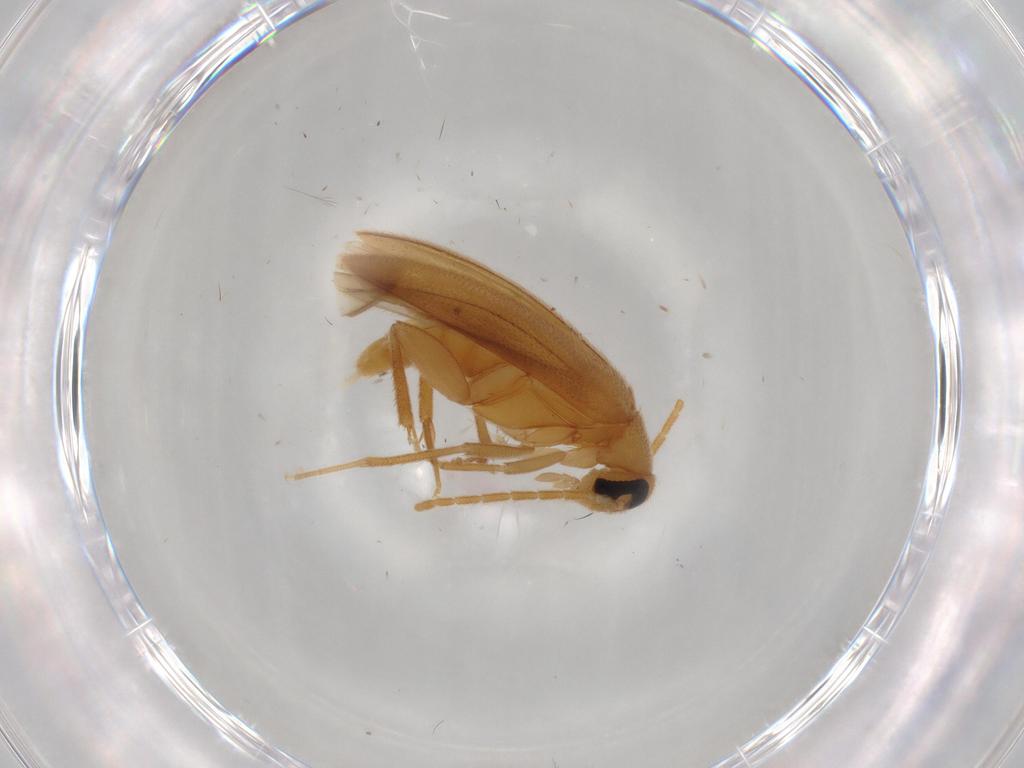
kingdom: Animalia
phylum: Arthropoda
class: Insecta
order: Coleoptera
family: Scraptiidae
